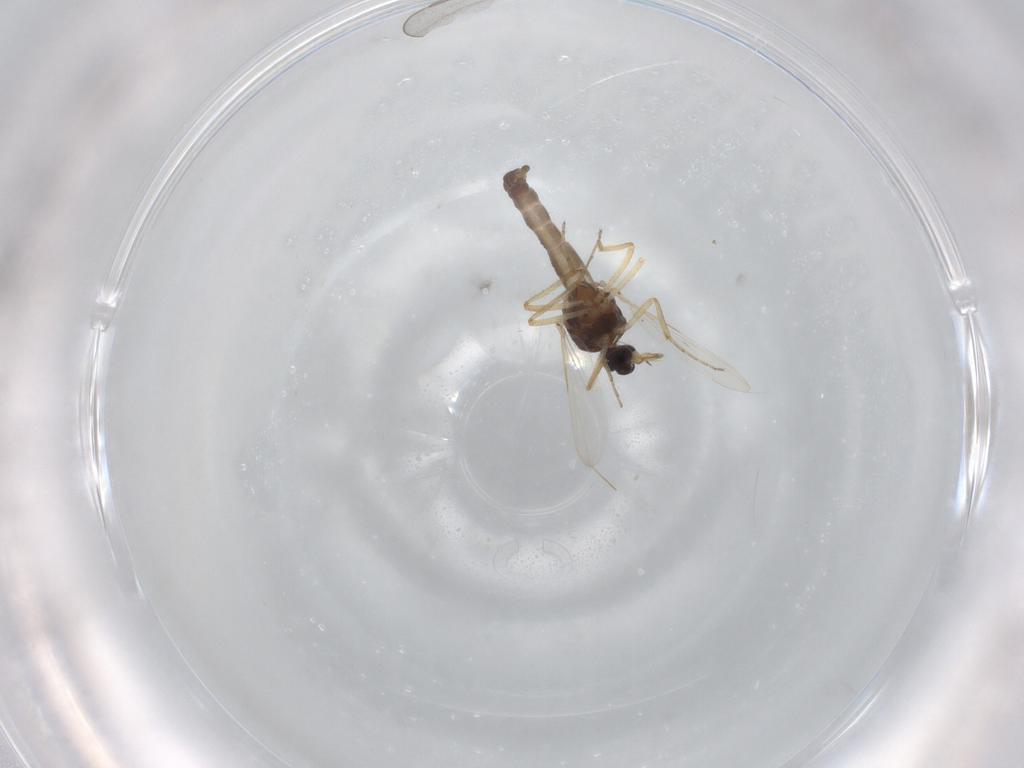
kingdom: Animalia
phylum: Arthropoda
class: Insecta
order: Diptera
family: Ceratopogonidae
